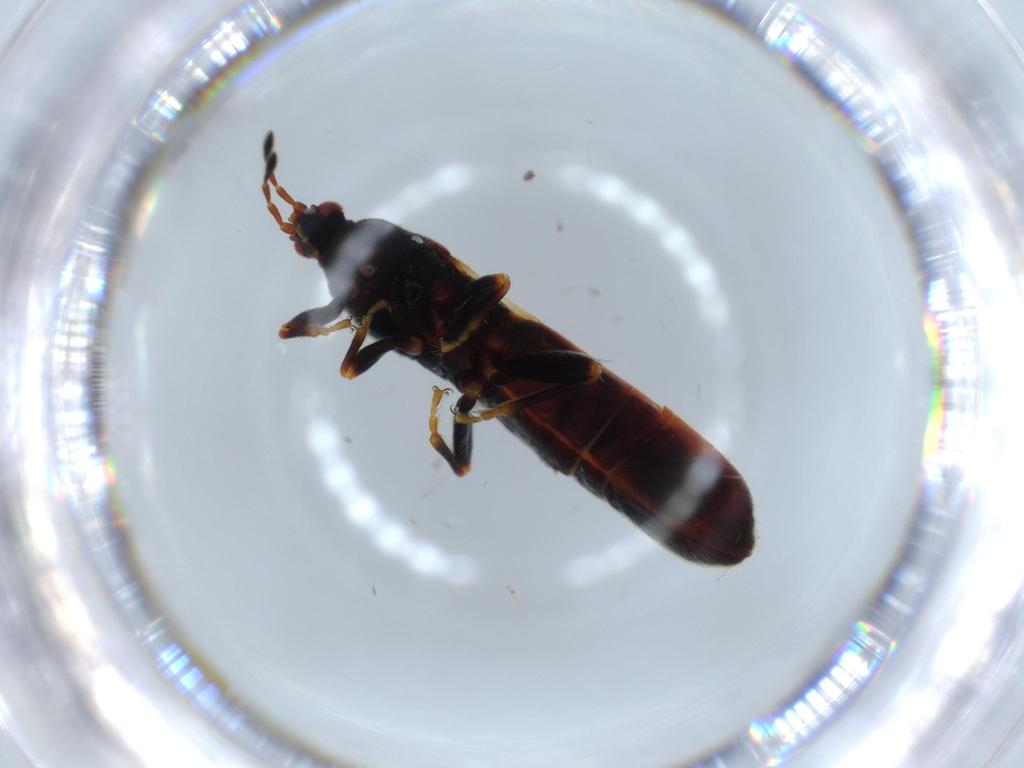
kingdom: Animalia
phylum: Arthropoda
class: Insecta
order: Hemiptera
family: Blissidae
